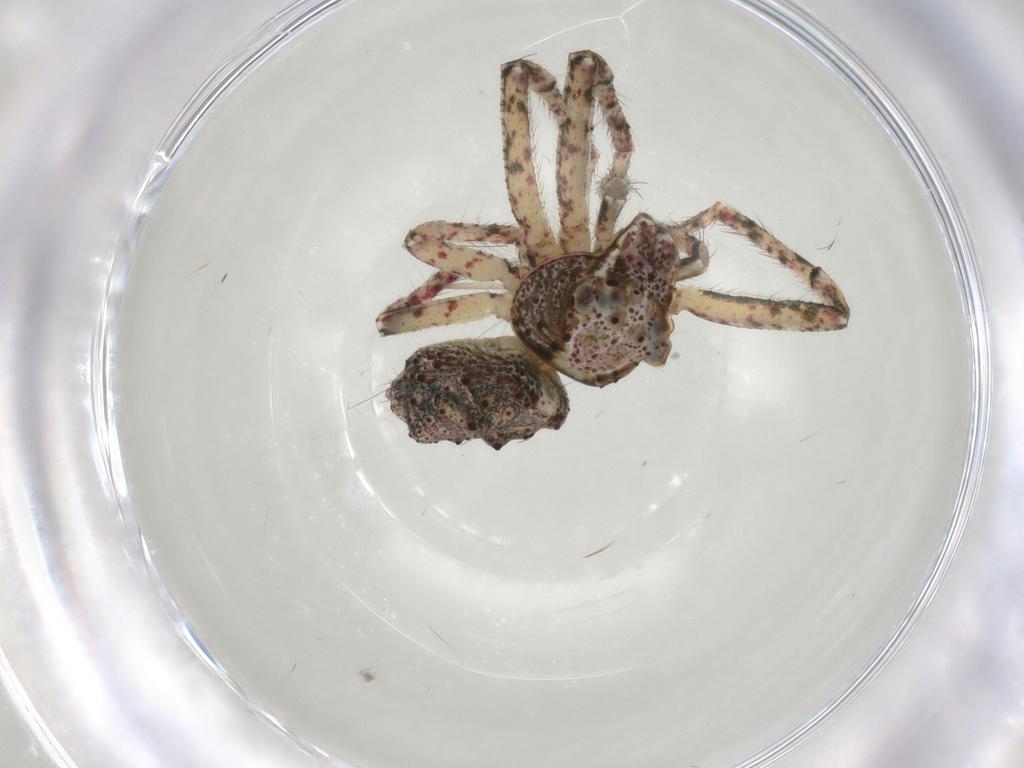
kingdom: Animalia
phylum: Arthropoda
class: Arachnida
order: Araneae
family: Thomisidae
